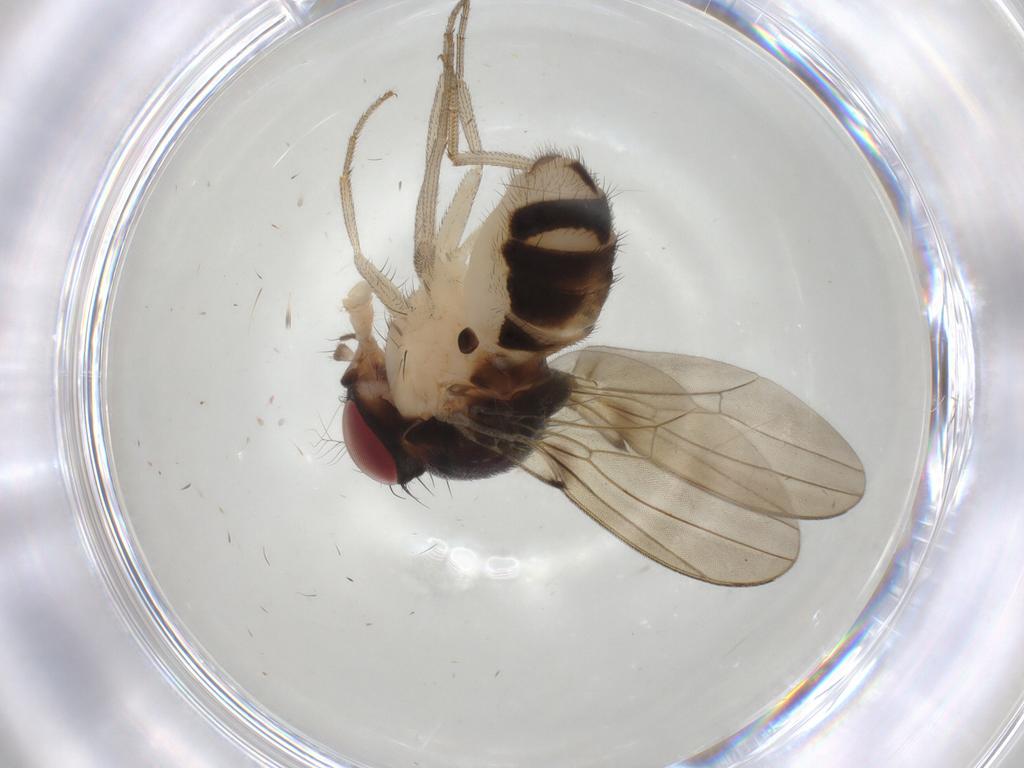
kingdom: Animalia
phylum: Arthropoda
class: Insecta
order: Diptera
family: Drosophilidae
